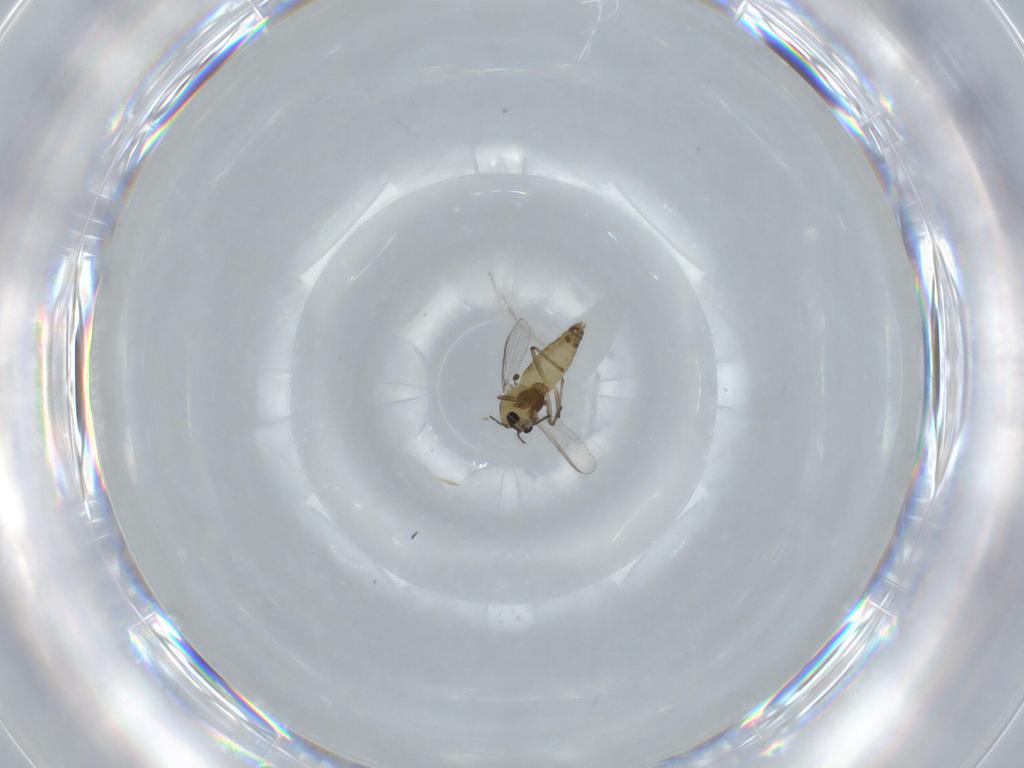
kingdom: Animalia
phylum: Arthropoda
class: Insecta
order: Diptera
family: Chironomidae
